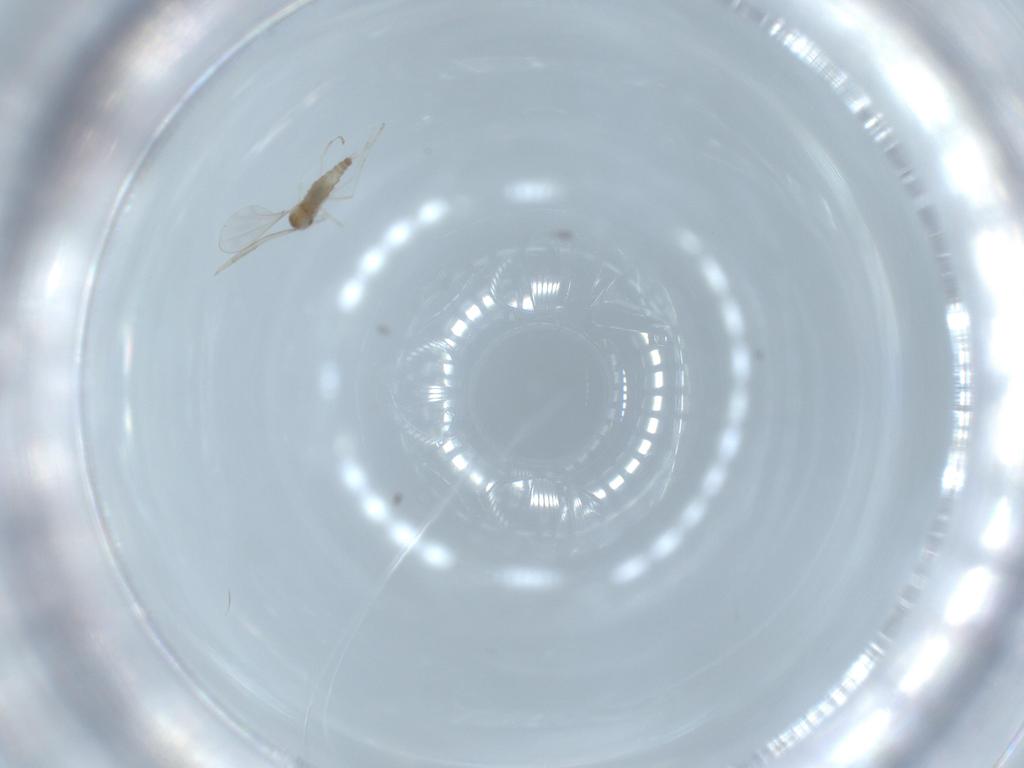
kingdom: Animalia
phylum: Arthropoda
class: Insecta
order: Diptera
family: Cecidomyiidae
